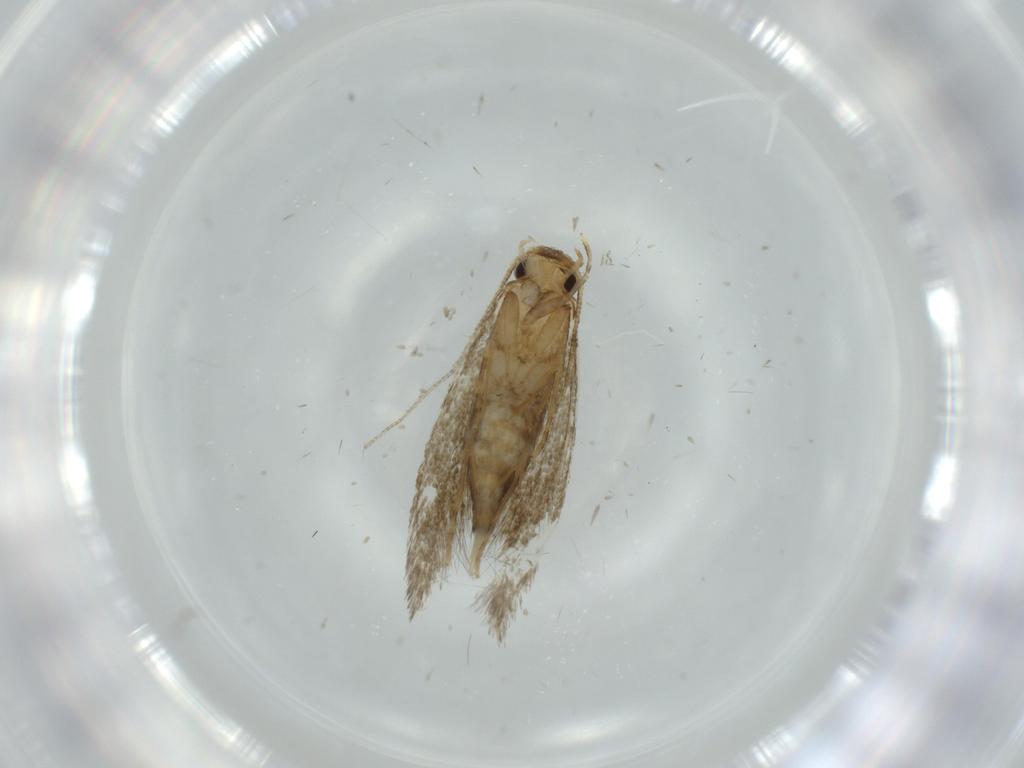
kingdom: Animalia
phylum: Arthropoda
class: Insecta
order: Lepidoptera
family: Tineidae
